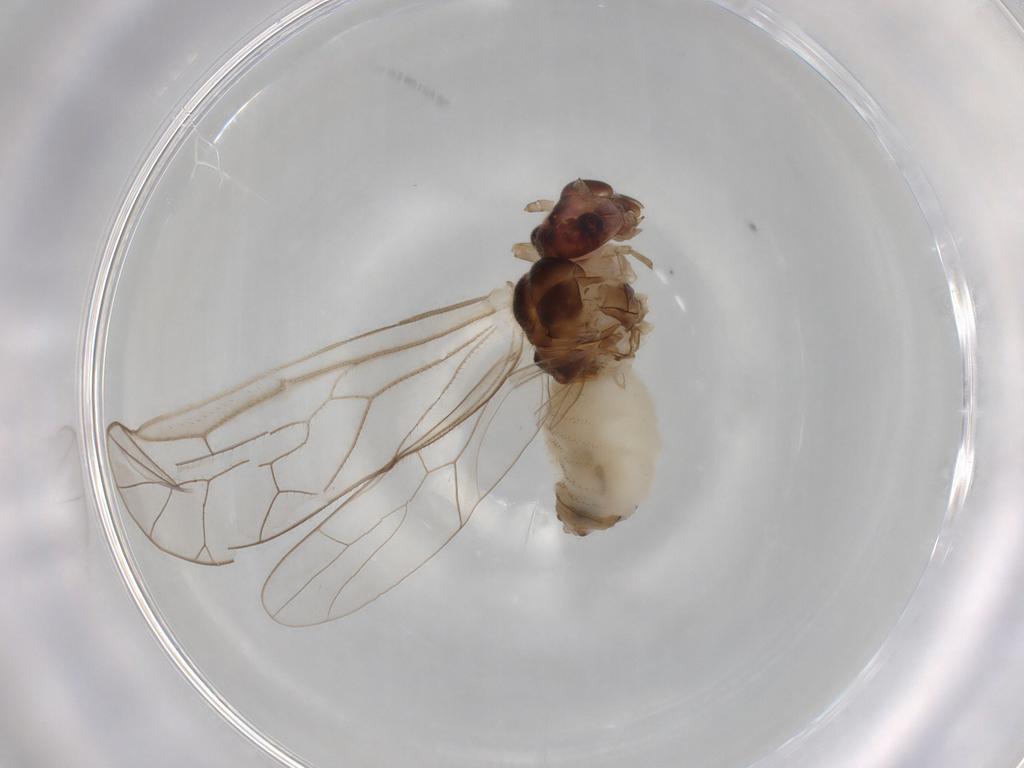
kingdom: Animalia
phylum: Arthropoda
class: Insecta
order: Psocodea
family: Stenopsocidae
